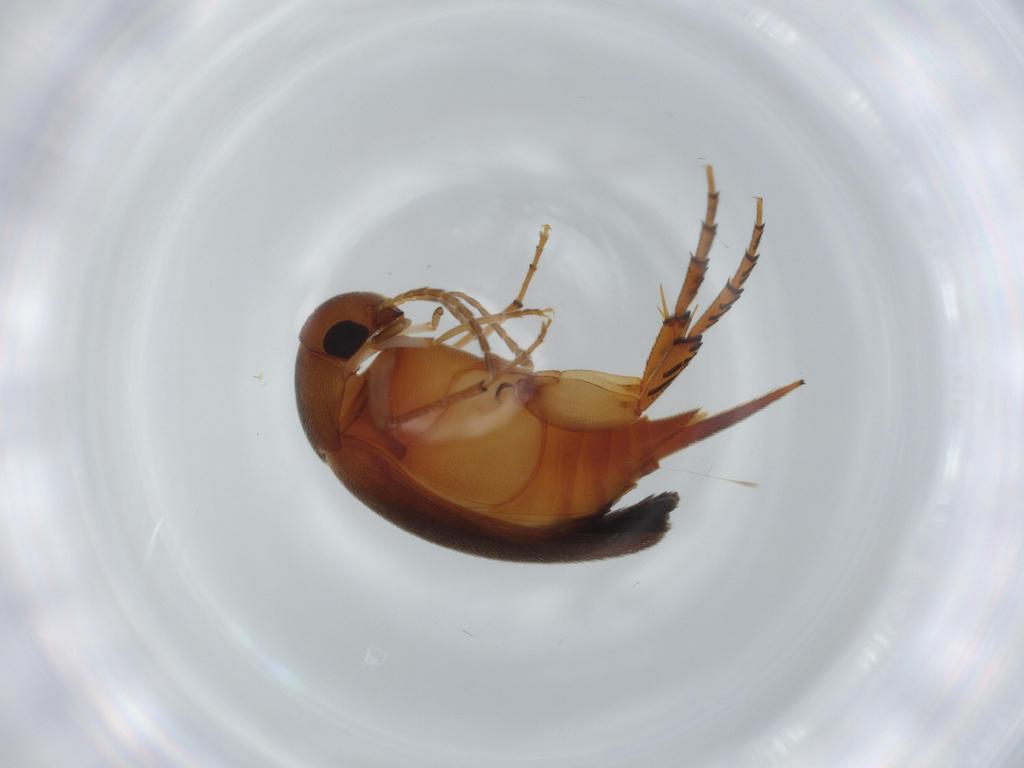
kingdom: Animalia
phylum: Arthropoda
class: Insecta
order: Coleoptera
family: Mordellidae
